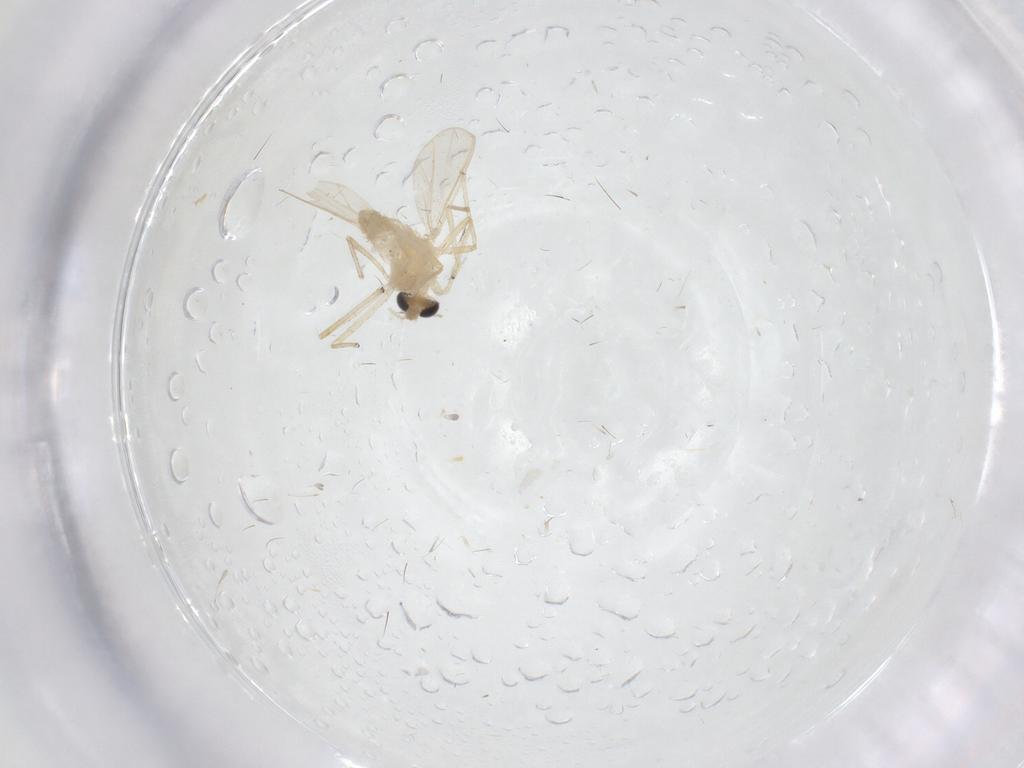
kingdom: Animalia
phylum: Arthropoda
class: Insecta
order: Diptera
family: Chironomidae
